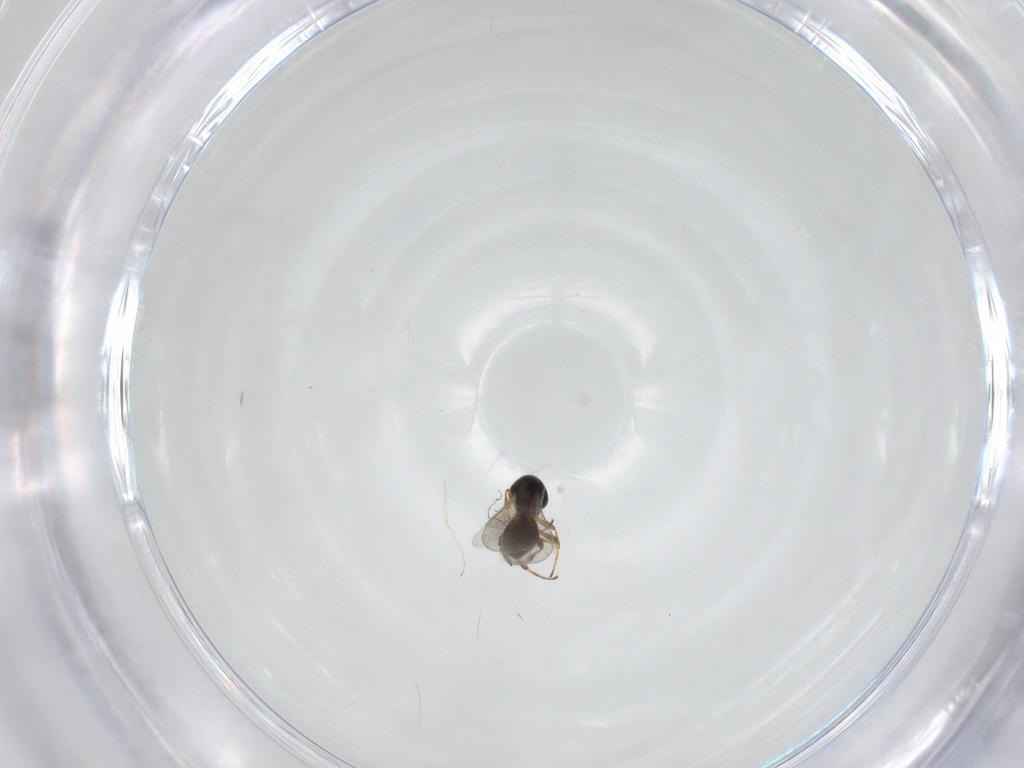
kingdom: Animalia
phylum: Arthropoda
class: Insecta
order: Hymenoptera
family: Platygastridae
